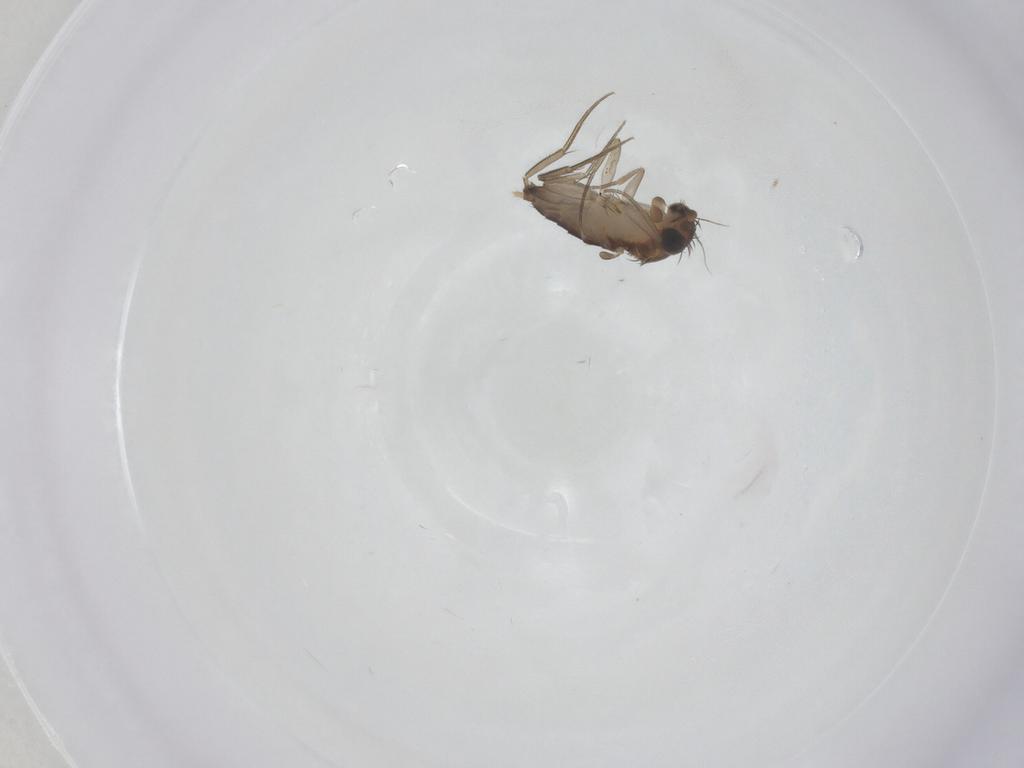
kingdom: Animalia
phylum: Arthropoda
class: Insecta
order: Diptera
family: Phoridae
